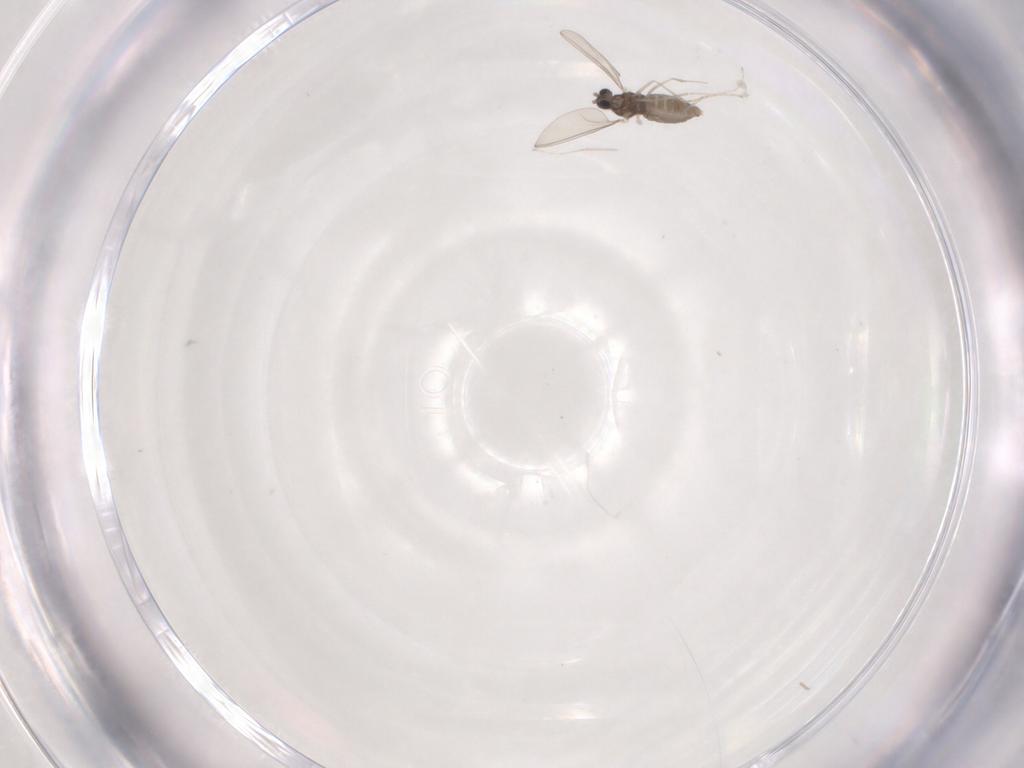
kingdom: Animalia
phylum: Arthropoda
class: Insecta
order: Diptera
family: Cecidomyiidae
